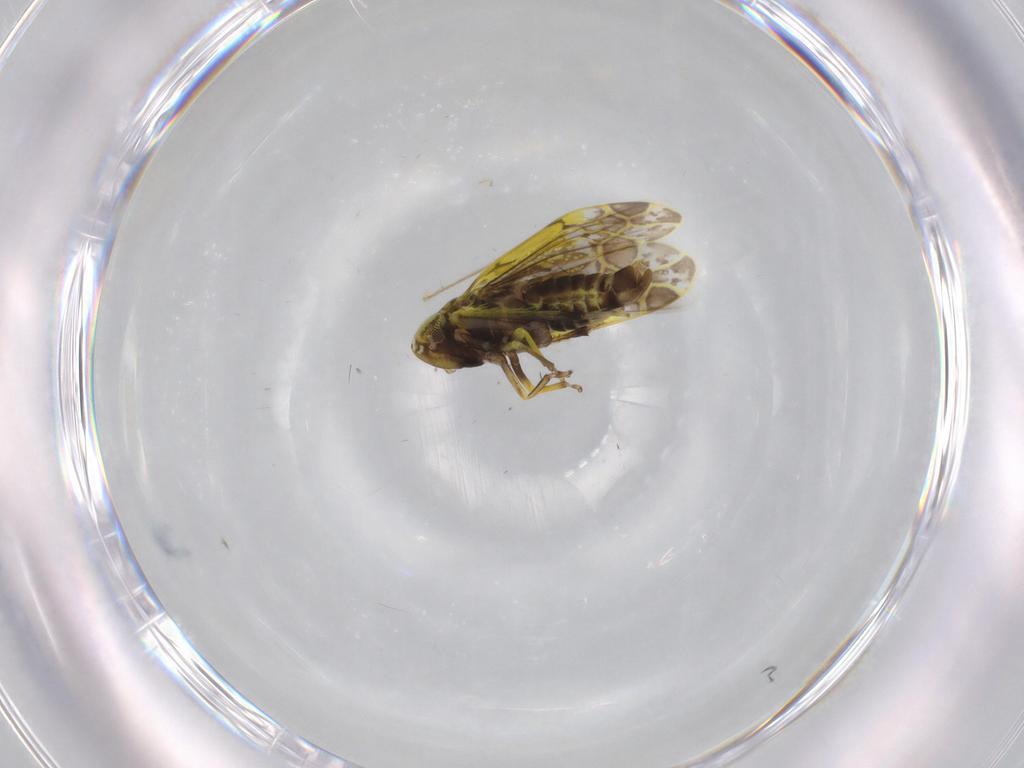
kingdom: Animalia
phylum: Arthropoda
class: Insecta
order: Hemiptera
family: Cicadellidae
